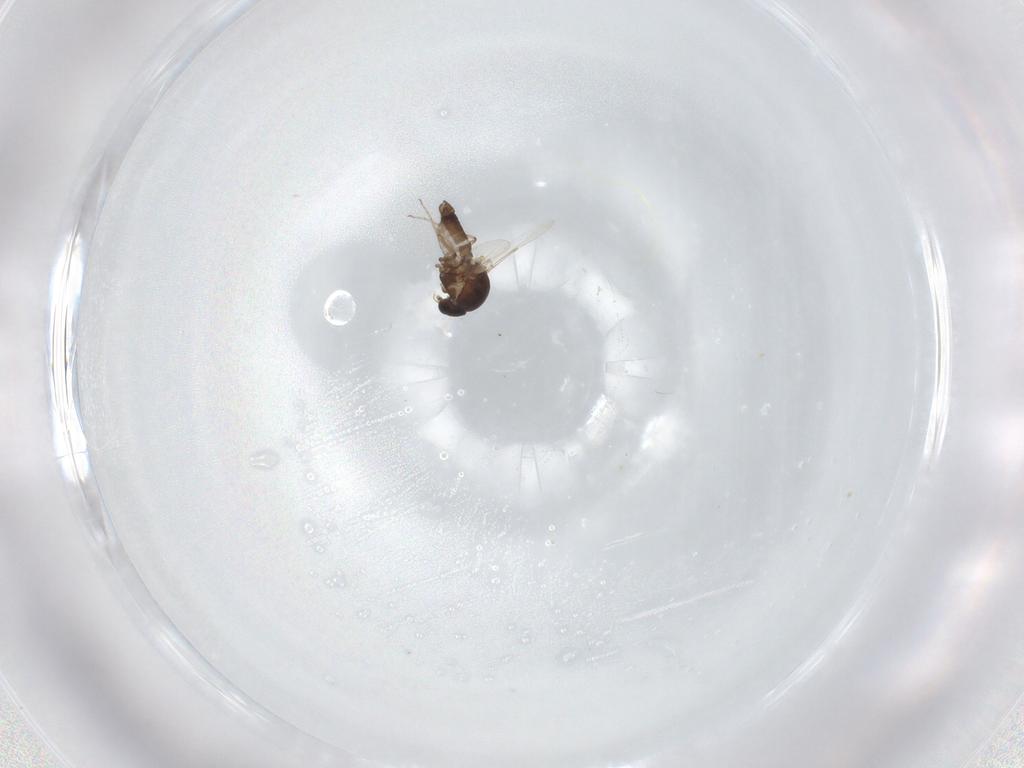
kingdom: Animalia
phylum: Arthropoda
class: Insecta
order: Diptera
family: Ceratopogonidae
